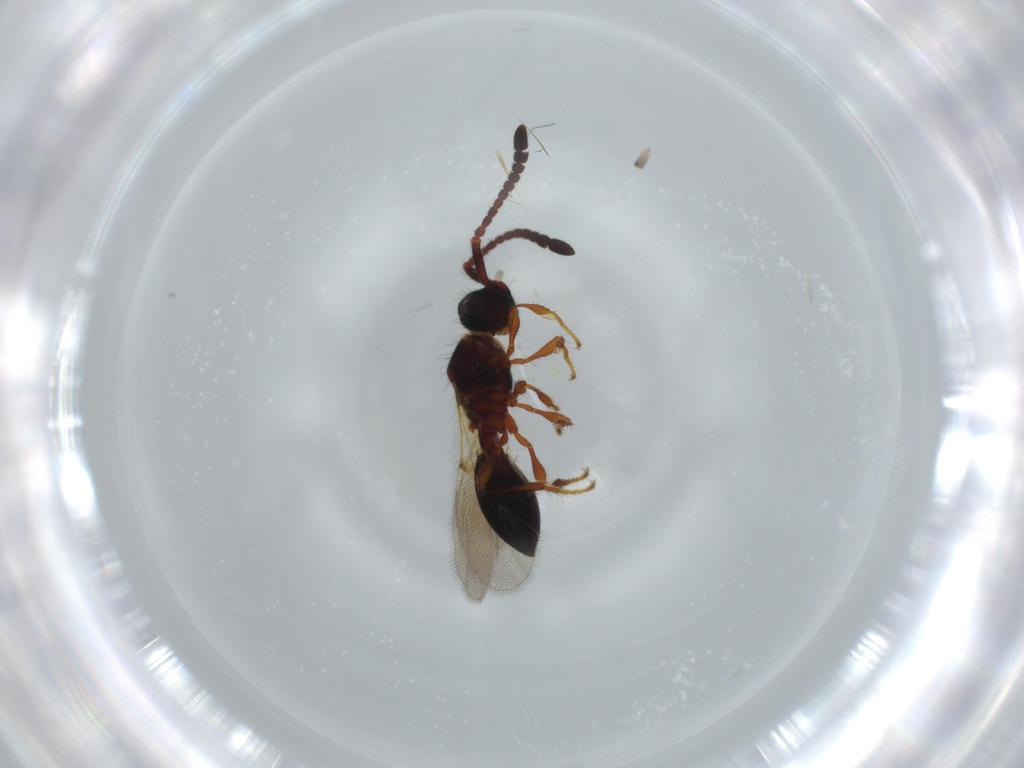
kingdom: Animalia
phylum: Arthropoda
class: Insecta
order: Hymenoptera
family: Diapriidae
